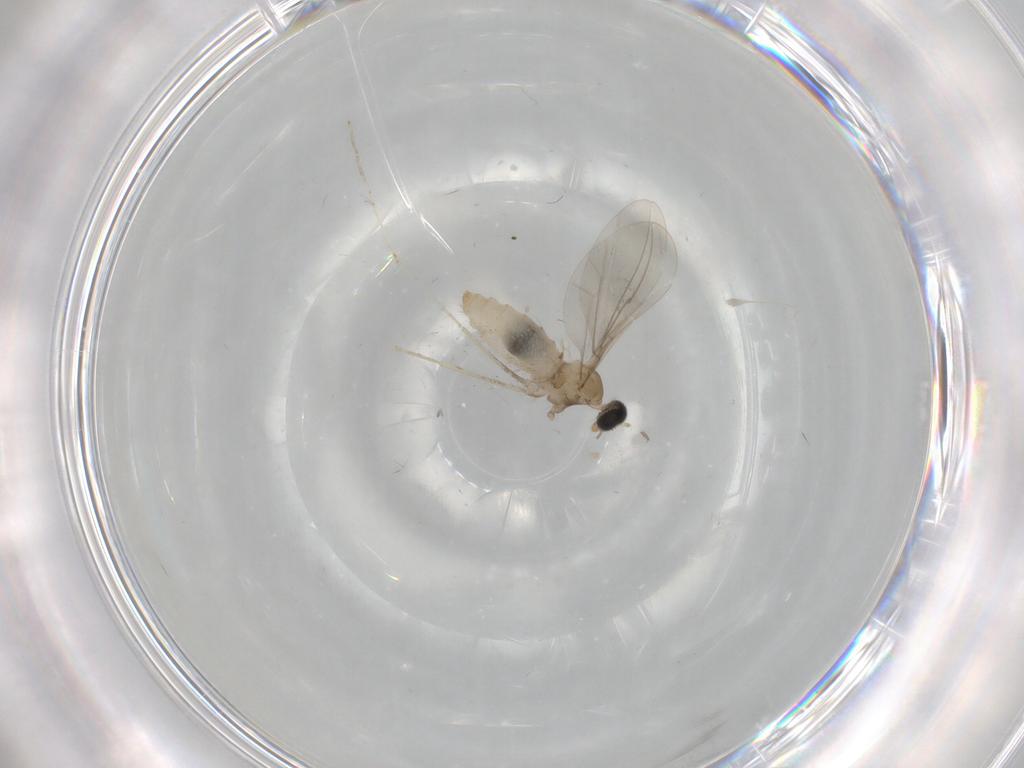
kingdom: Animalia
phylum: Arthropoda
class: Insecta
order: Diptera
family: Cecidomyiidae
